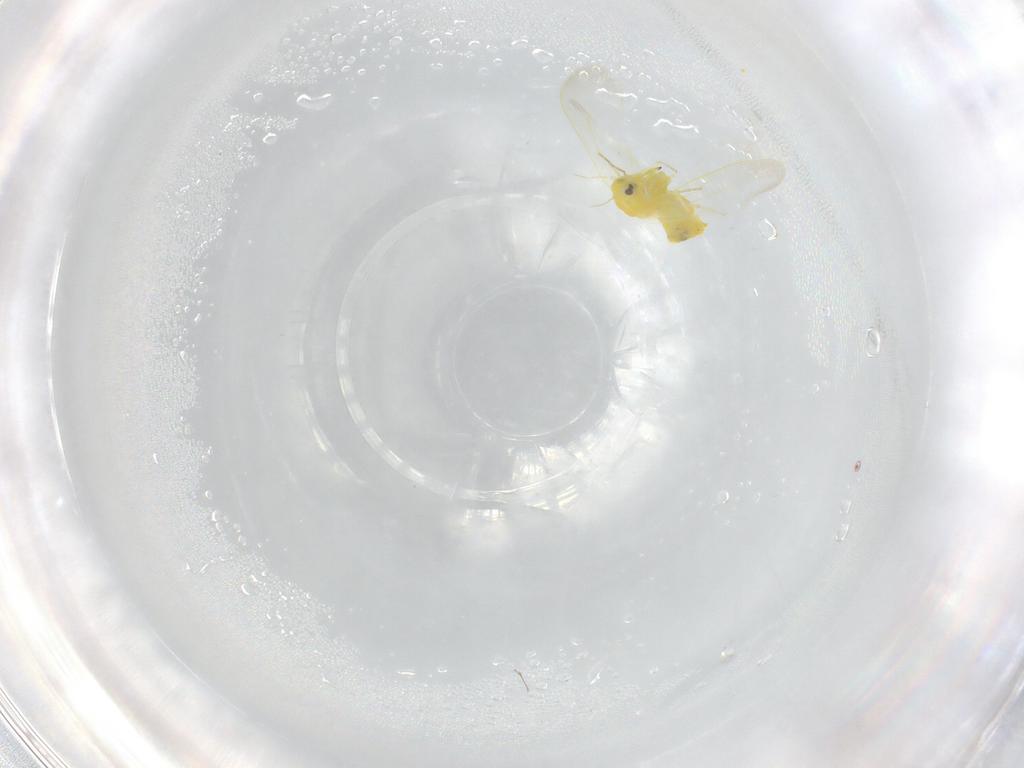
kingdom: Animalia
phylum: Arthropoda
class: Insecta
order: Hemiptera
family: Aleyrodidae
